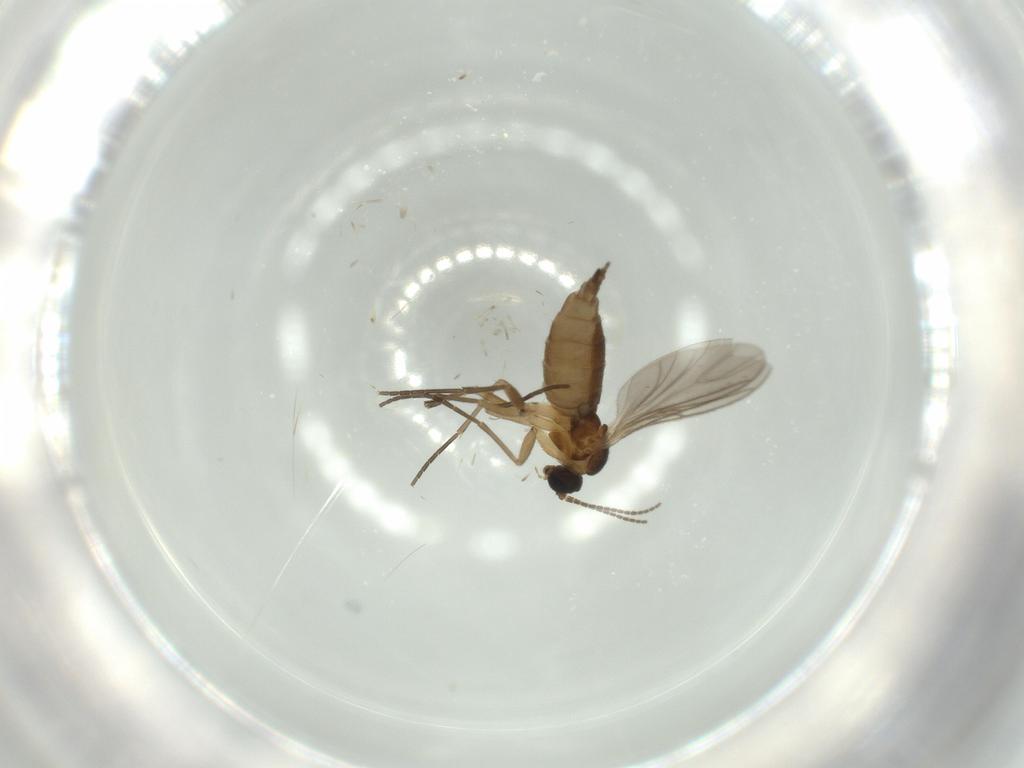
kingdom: Animalia
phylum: Arthropoda
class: Insecta
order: Diptera
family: Sciaridae
